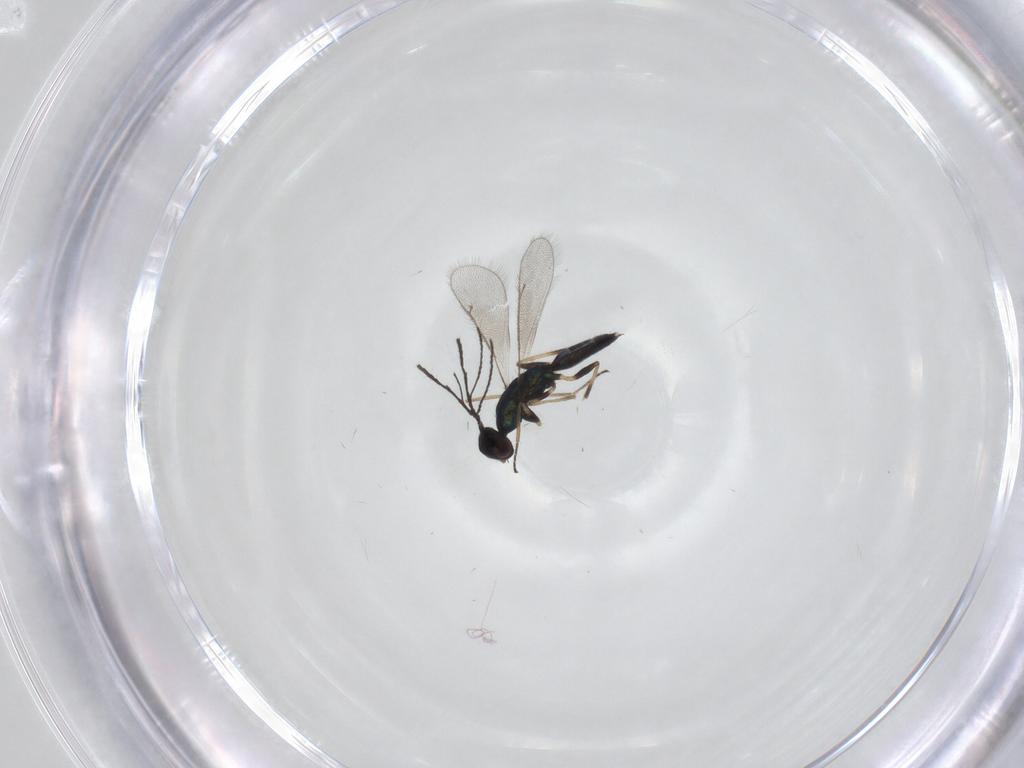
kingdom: Animalia
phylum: Arthropoda
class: Insecta
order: Hymenoptera
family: Eulophidae
